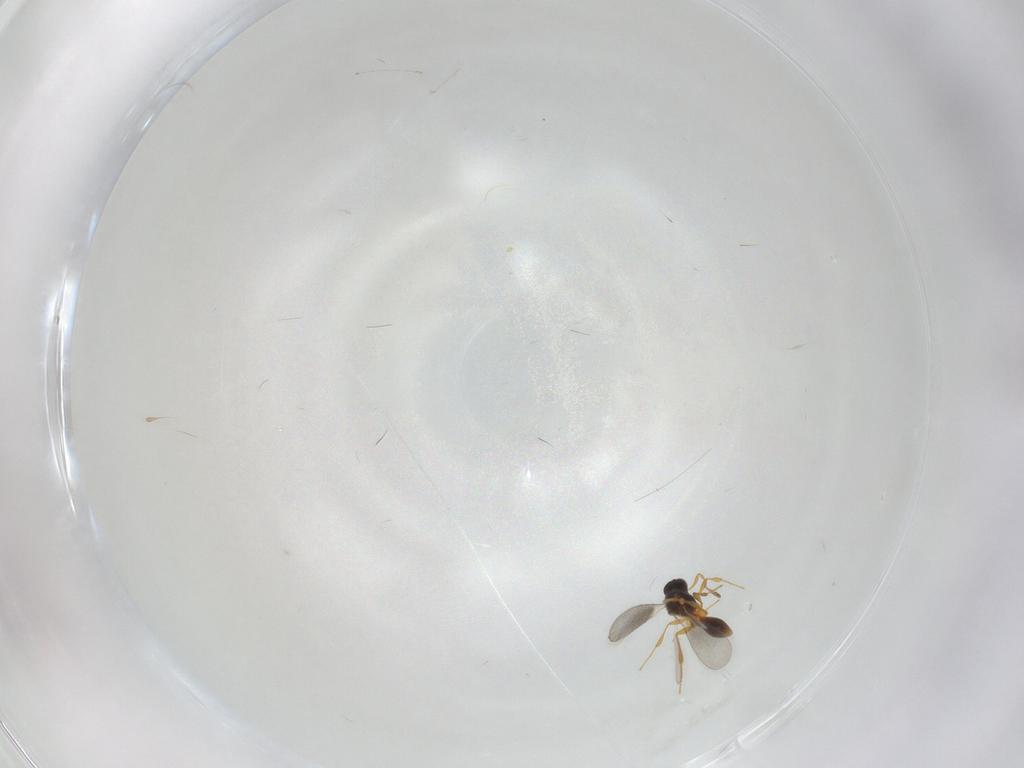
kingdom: Animalia
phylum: Arthropoda
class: Insecta
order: Hymenoptera
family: Platygastridae
